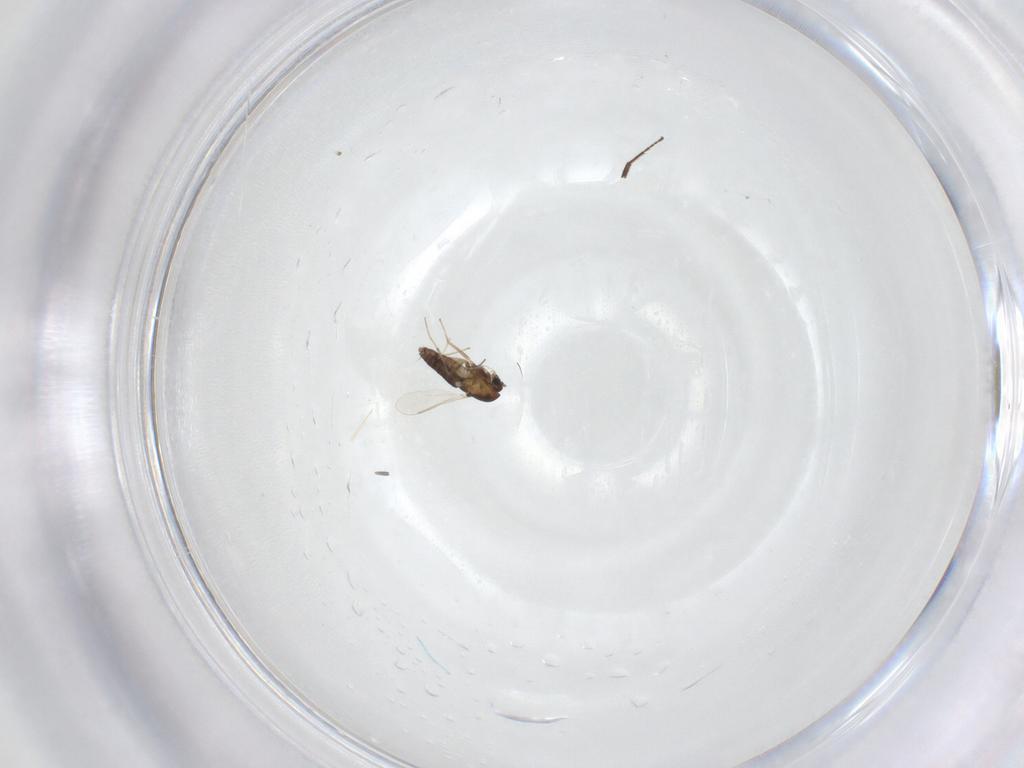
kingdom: Animalia
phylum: Arthropoda
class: Insecta
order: Diptera
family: Chironomidae
